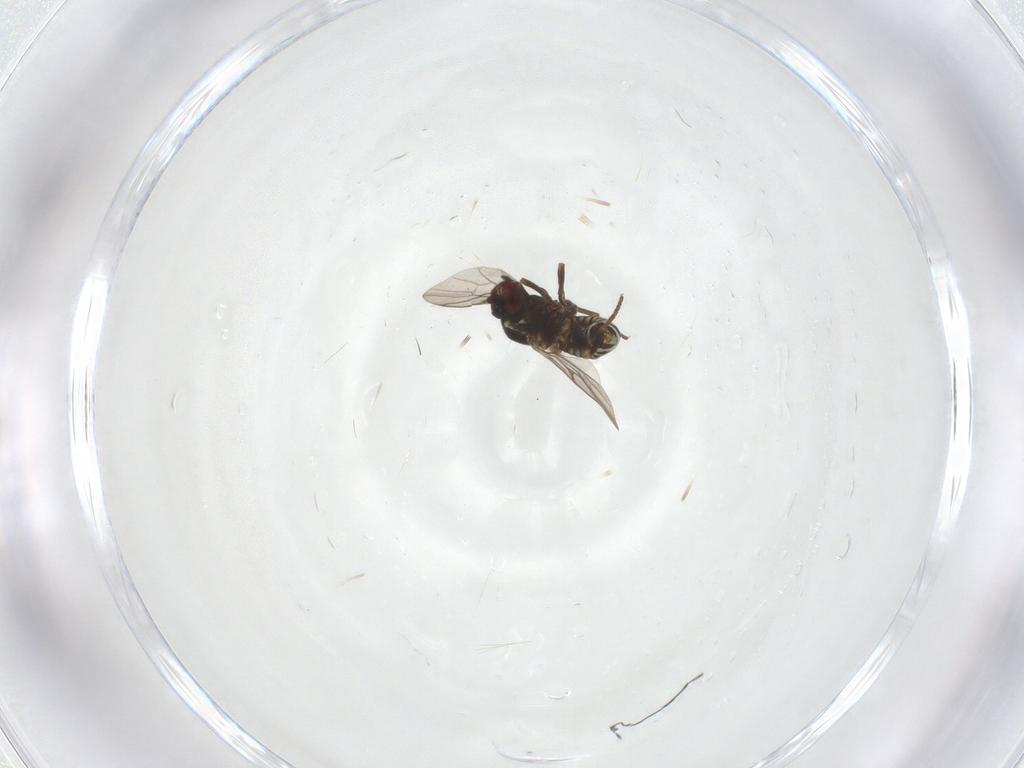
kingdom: Animalia
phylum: Arthropoda
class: Insecta
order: Diptera
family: Bombyliidae
